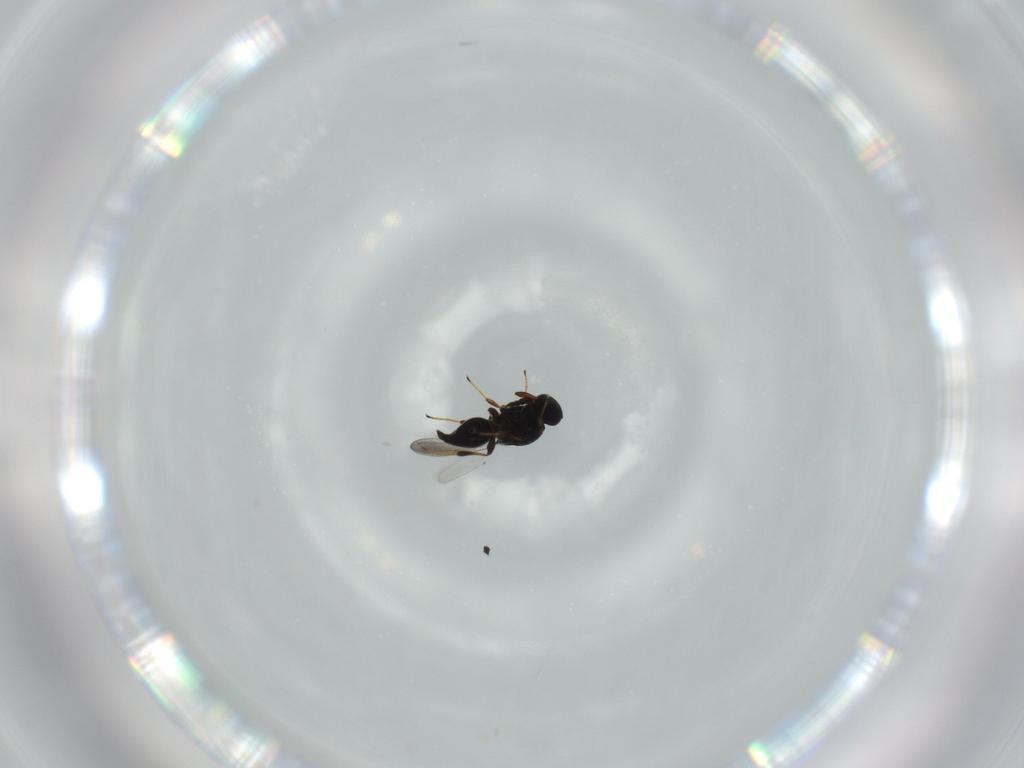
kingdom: Animalia
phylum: Arthropoda
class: Insecta
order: Hymenoptera
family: Platygastridae
